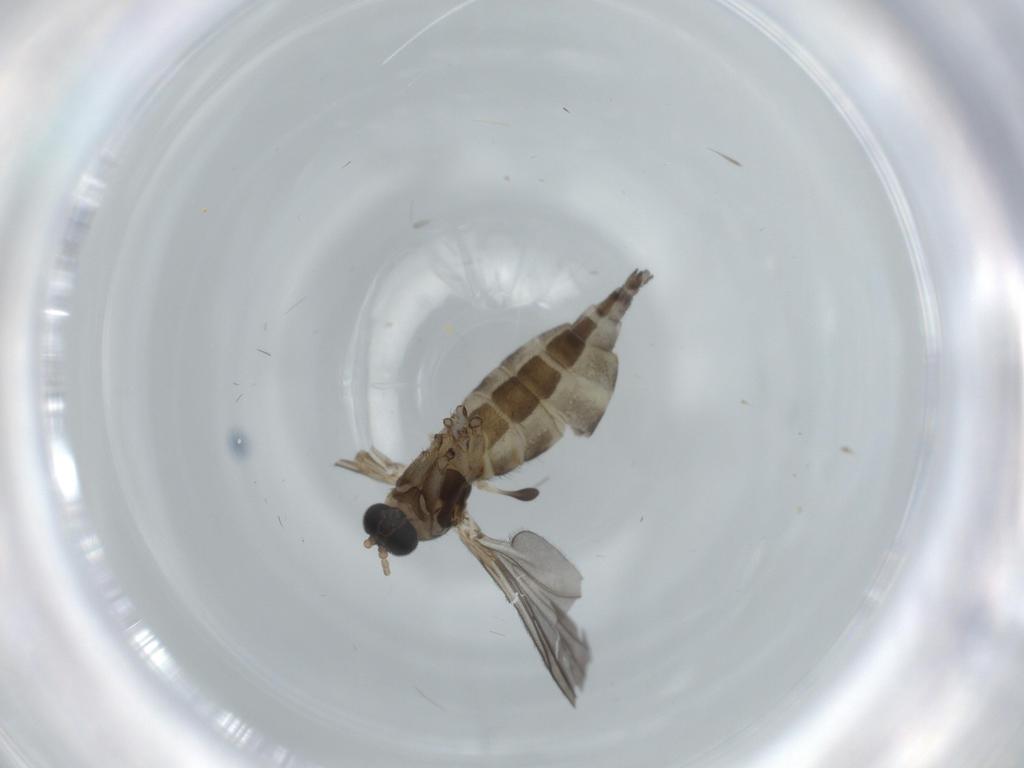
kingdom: Animalia
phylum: Arthropoda
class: Insecta
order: Diptera
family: Sciaridae
